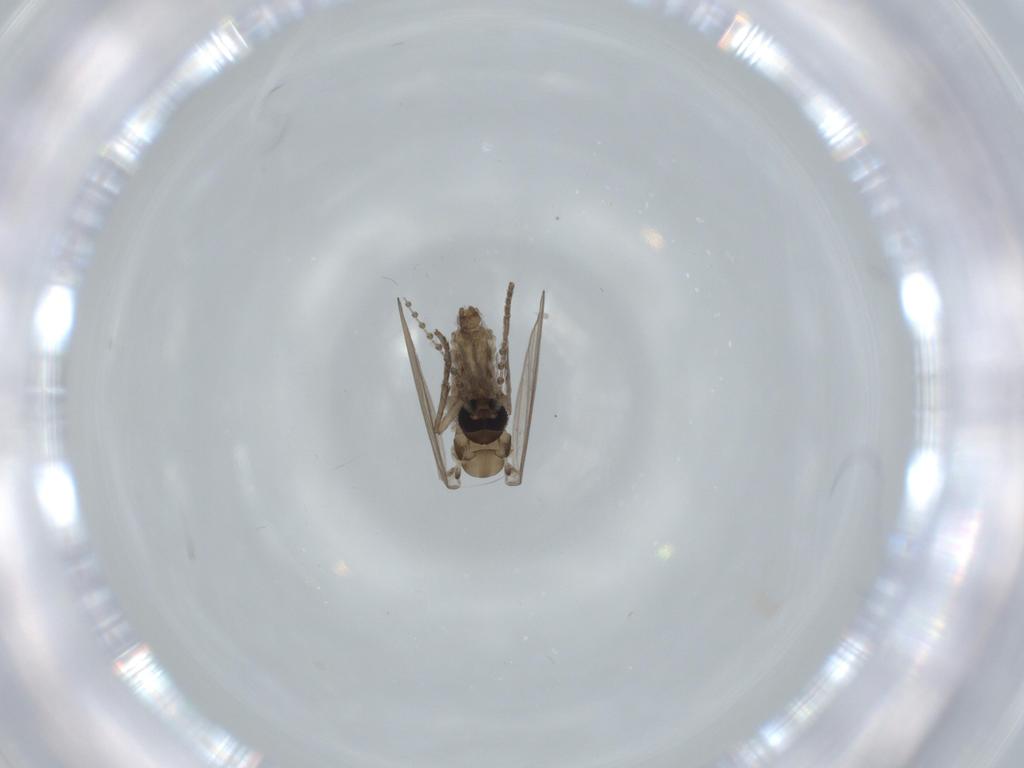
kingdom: Animalia
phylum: Arthropoda
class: Insecta
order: Diptera
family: Psychodidae
